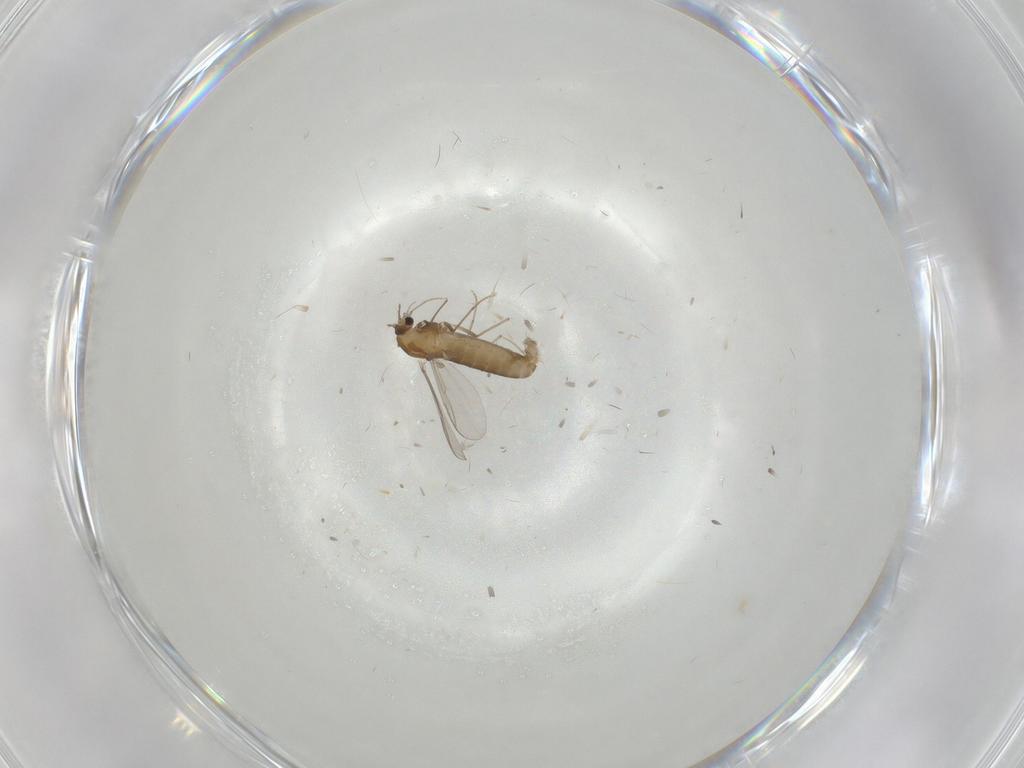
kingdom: Animalia
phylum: Arthropoda
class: Insecta
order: Diptera
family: Chironomidae
